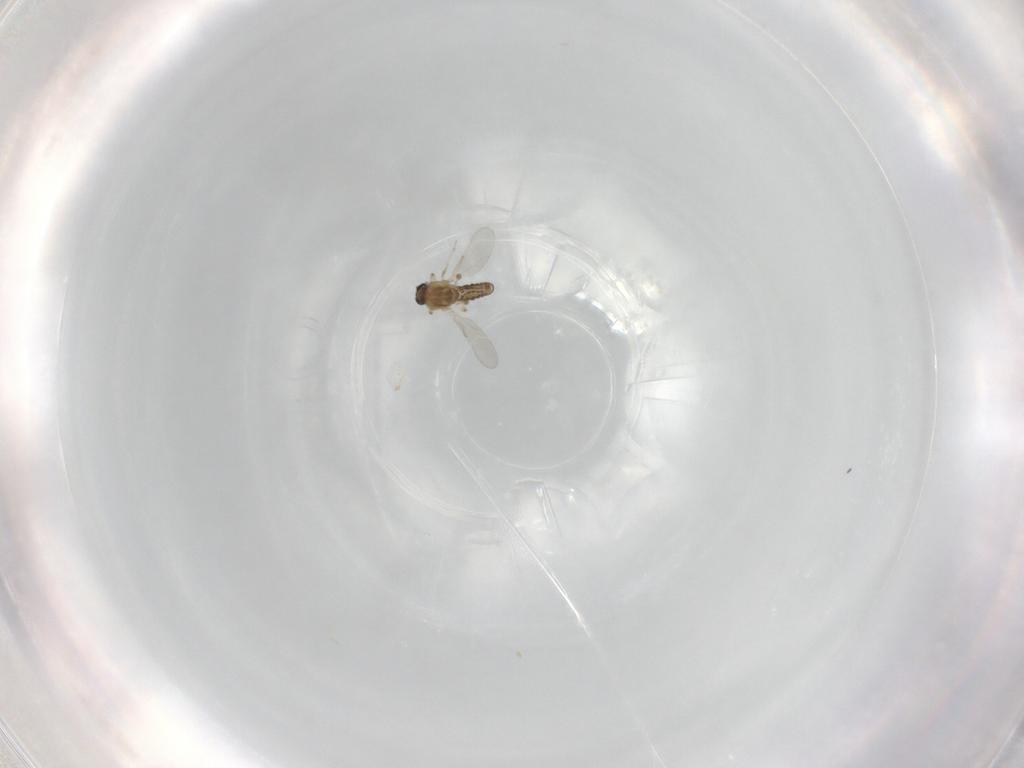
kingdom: Animalia
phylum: Arthropoda
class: Insecta
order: Diptera
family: Ceratopogonidae
